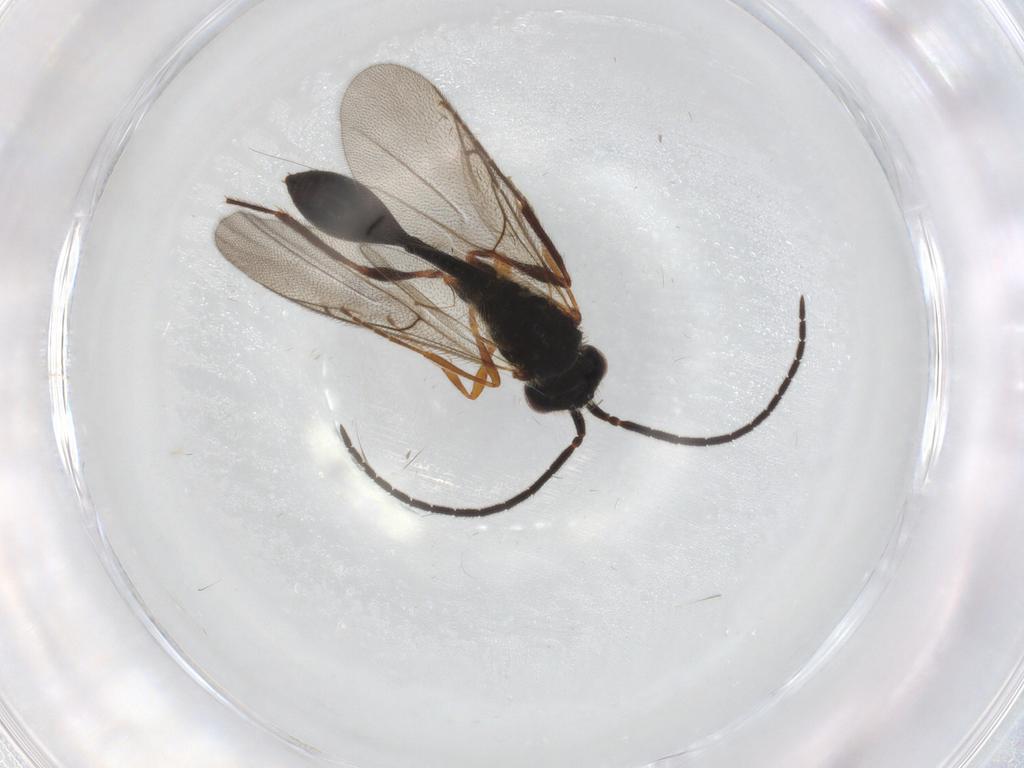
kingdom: Animalia
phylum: Arthropoda
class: Insecta
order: Hymenoptera
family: Diapriidae
